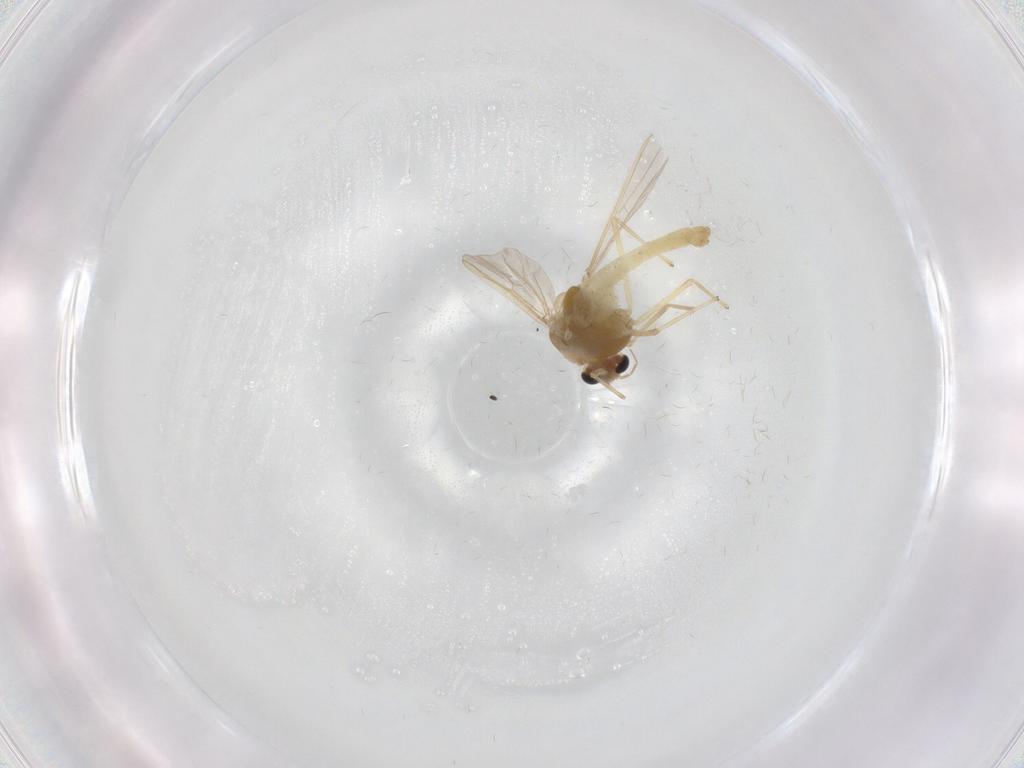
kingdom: Animalia
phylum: Arthropoda
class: Insecta
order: Diptera
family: Chironomidae
